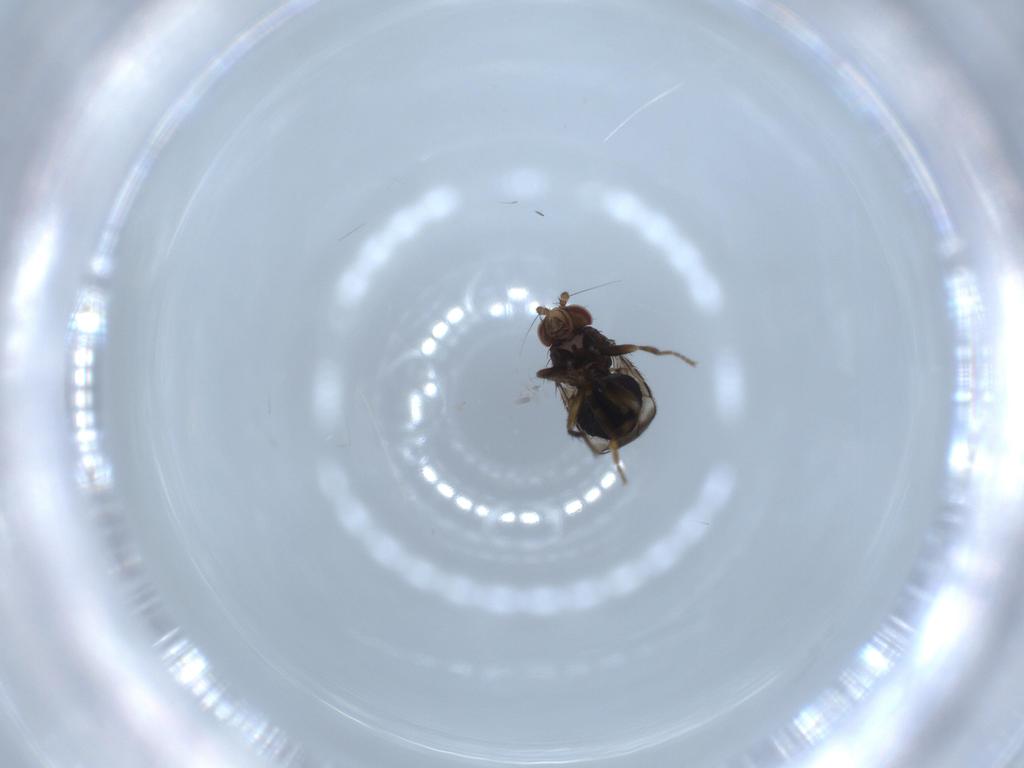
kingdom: Animalia
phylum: Arthropoda
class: Insecta
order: Diptera
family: Sphaeroceridae
